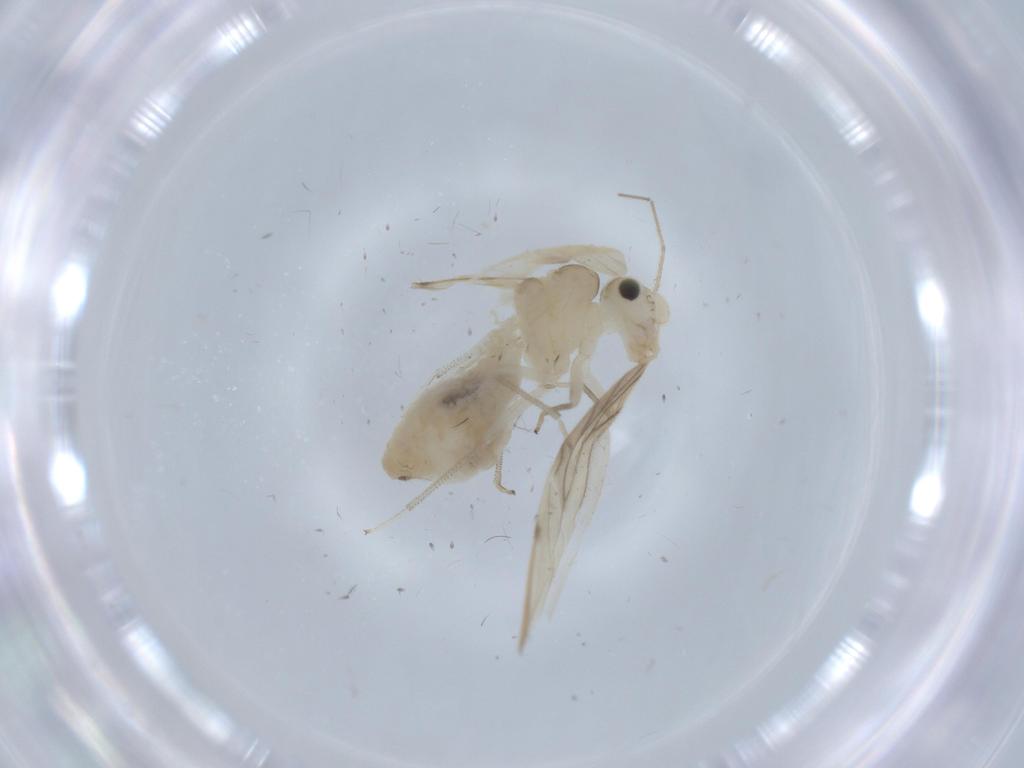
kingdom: Animalia
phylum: Arthropoda
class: Insecta
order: Psocodea
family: Caeciliusidae
